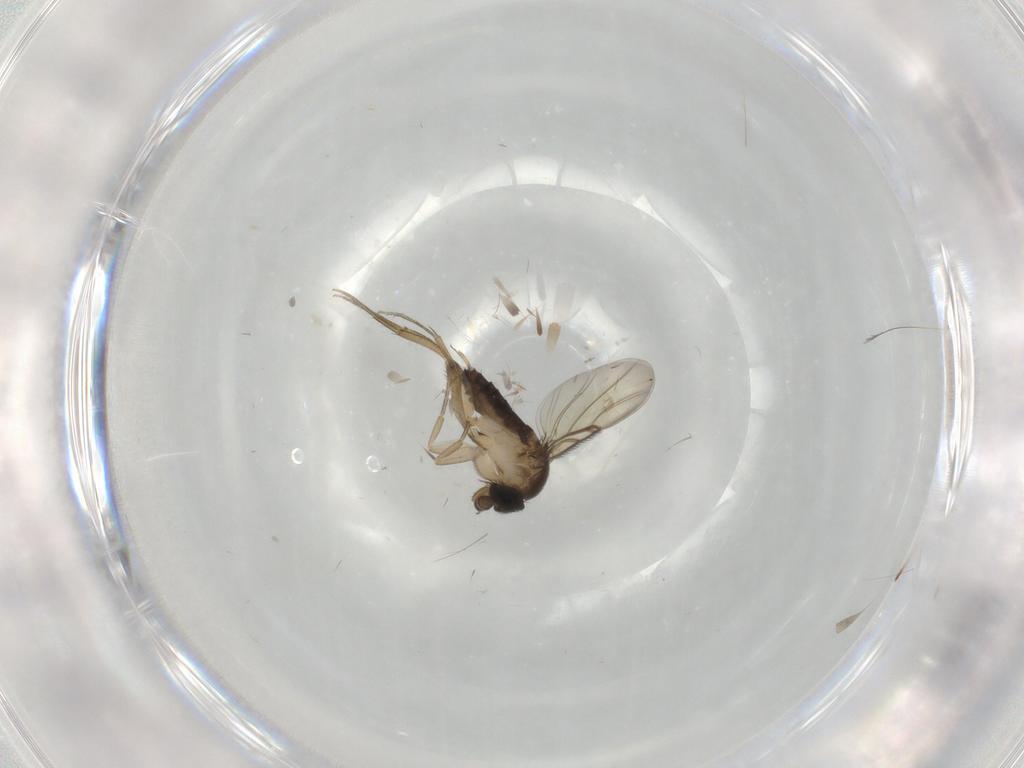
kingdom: Animalia
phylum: Arthropoda
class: Insecta
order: Diptera
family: Phoridae
